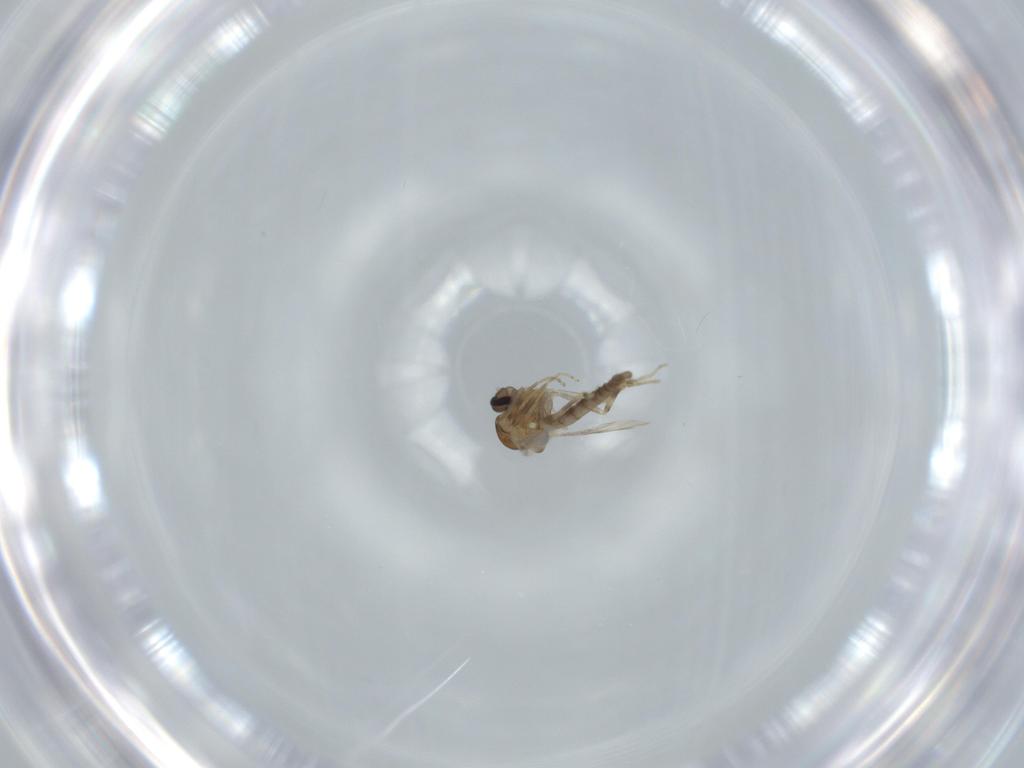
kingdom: Animalia
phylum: Arthropoda
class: Insecta
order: Diptera
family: Ceratopogonidae
